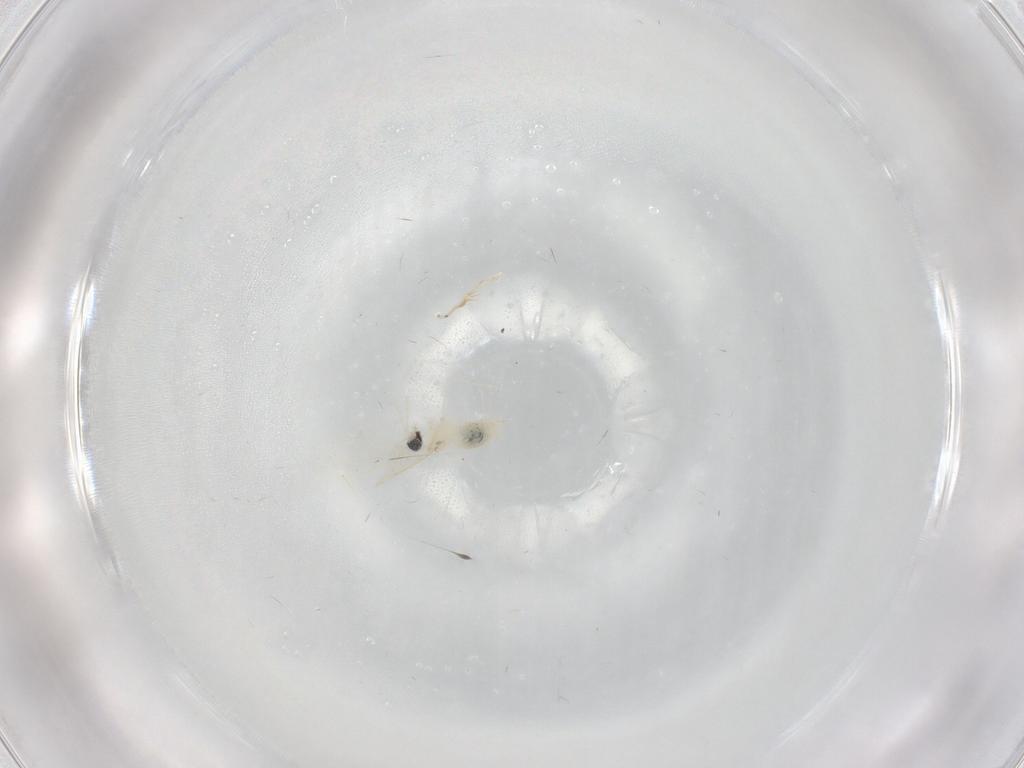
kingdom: Animalia
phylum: Arthropoda
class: Insecta
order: Diptera
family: Cecidomyiidae
